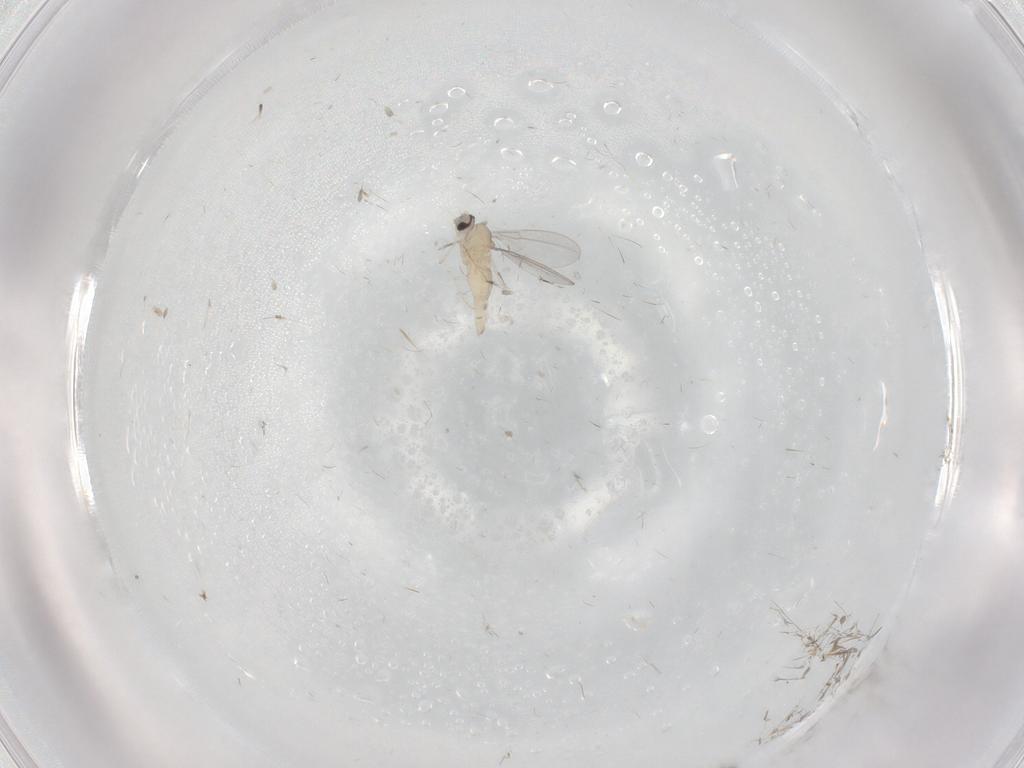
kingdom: Animalia
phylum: Arthropoda
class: Insecta
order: Diptera
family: Cecidomyiidae
